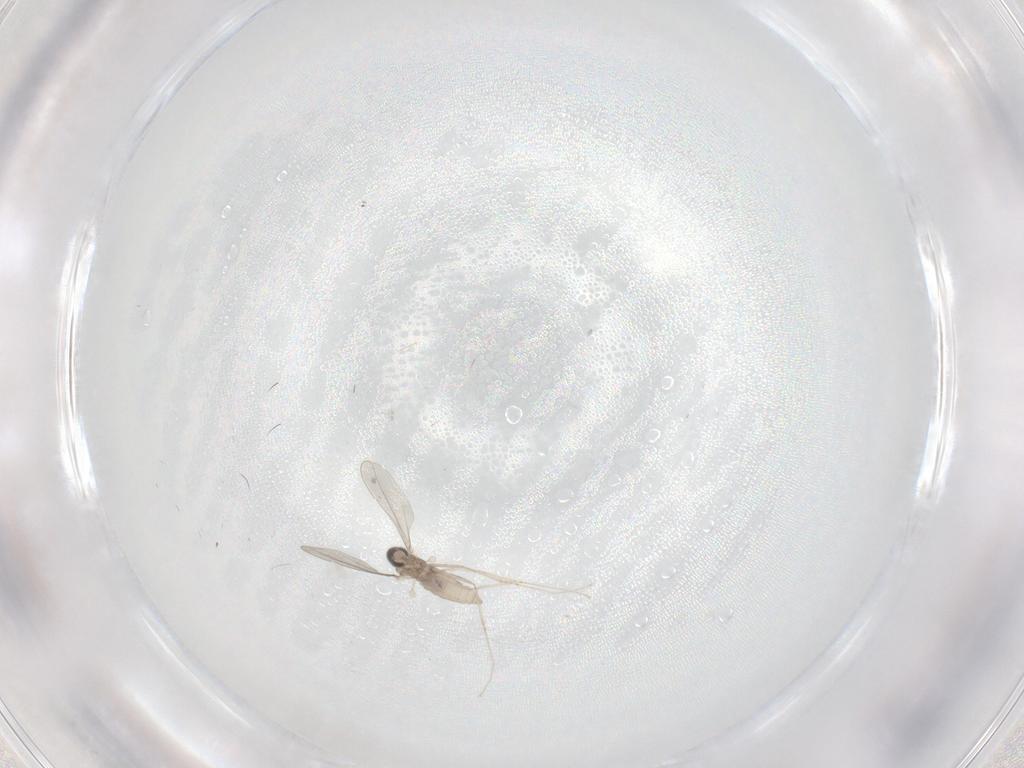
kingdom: Animalia
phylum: Arthropoda
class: Insecta
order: Diptera
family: Cecidomyiidae
